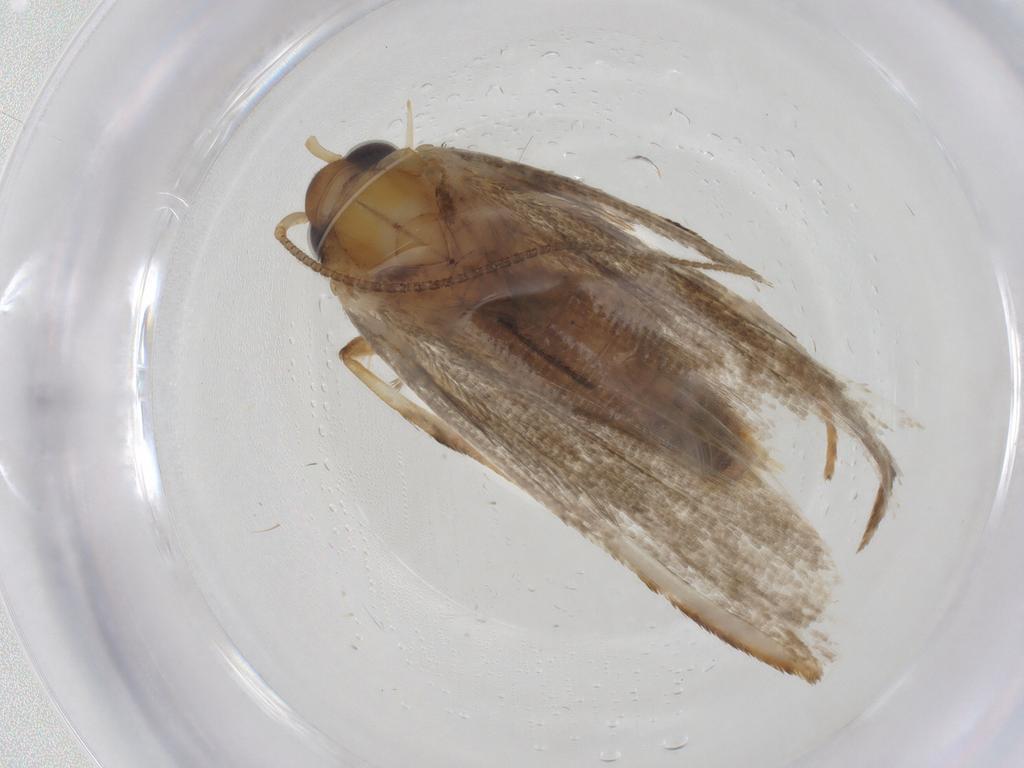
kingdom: Animalia
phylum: Arthropoda
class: Insecta
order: Lepidoptera
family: Blastobasidae
